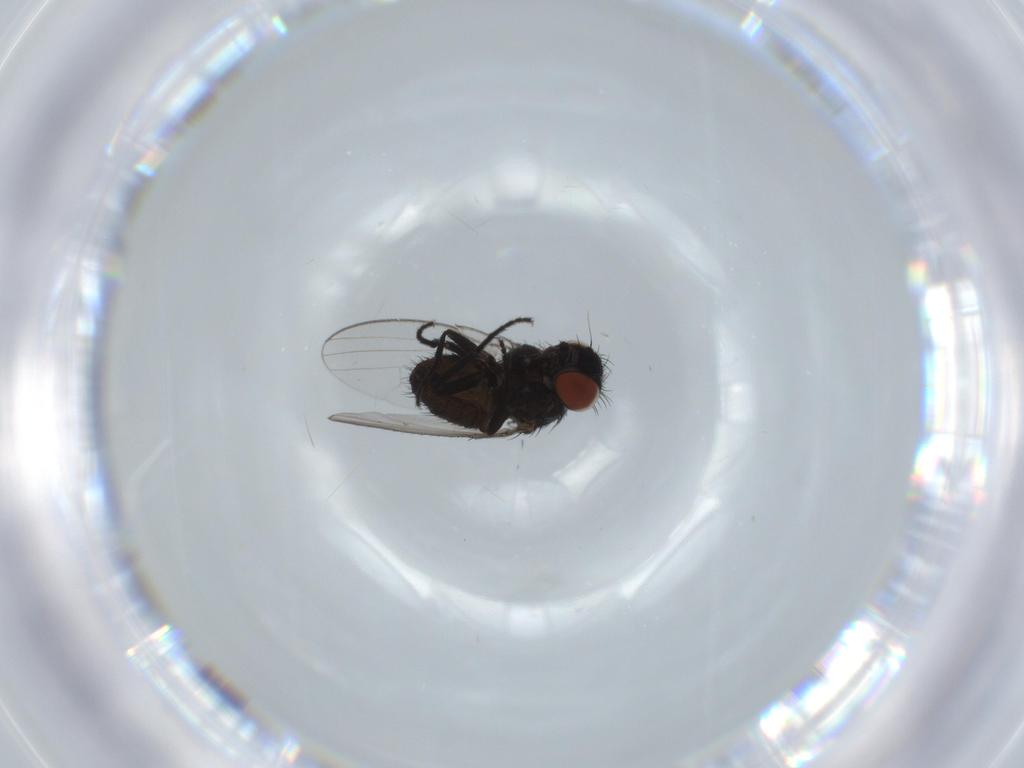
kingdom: Animalia
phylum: Arthropoda
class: Insecta
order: Diptera
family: Milichiidae
